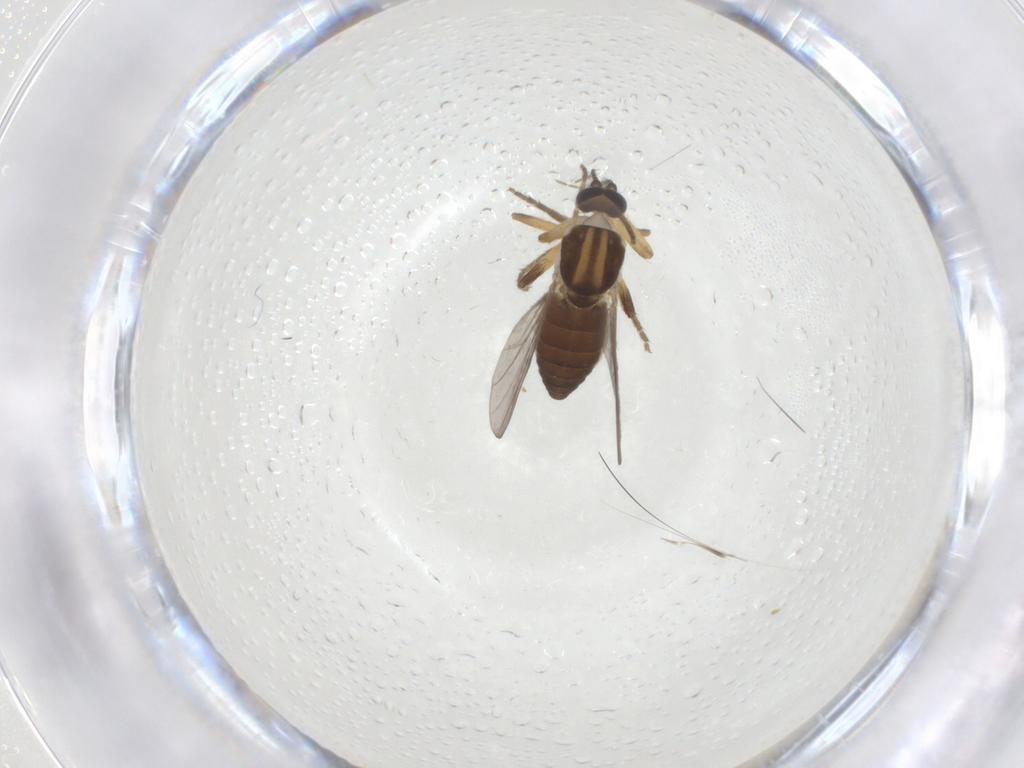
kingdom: Animalia
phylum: Arthropoda
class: Insecta
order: Diptera
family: Ceratopogonidae
